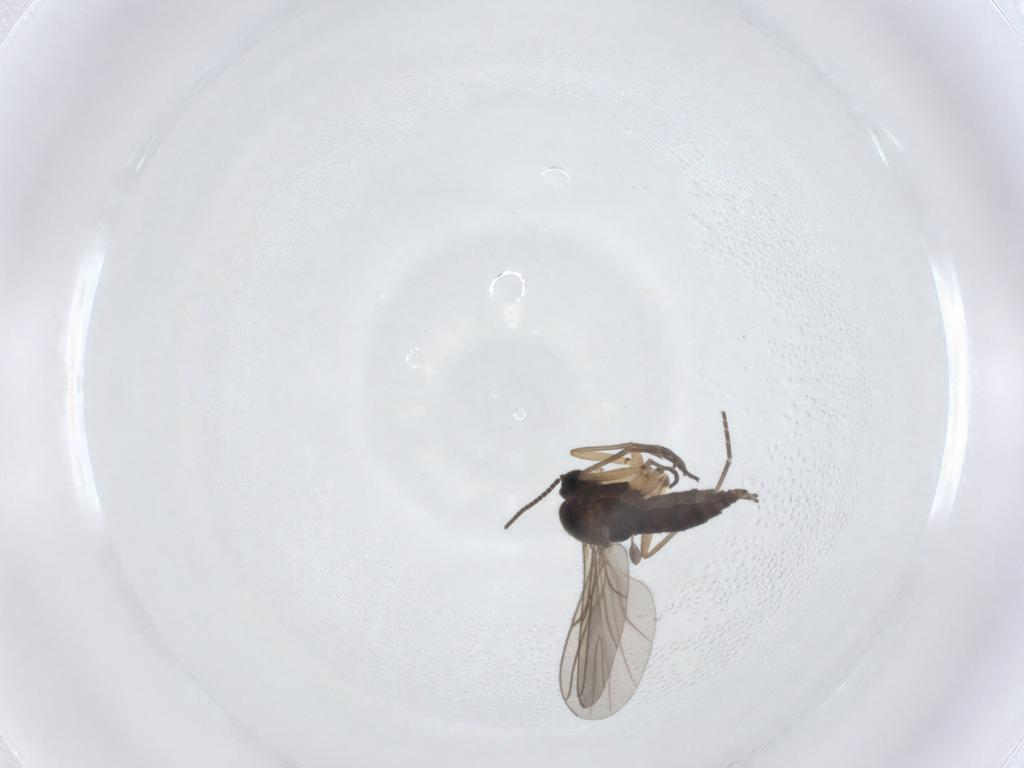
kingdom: Animalia
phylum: Arthropoda
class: Insecta
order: Diptera
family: Sciaridae
